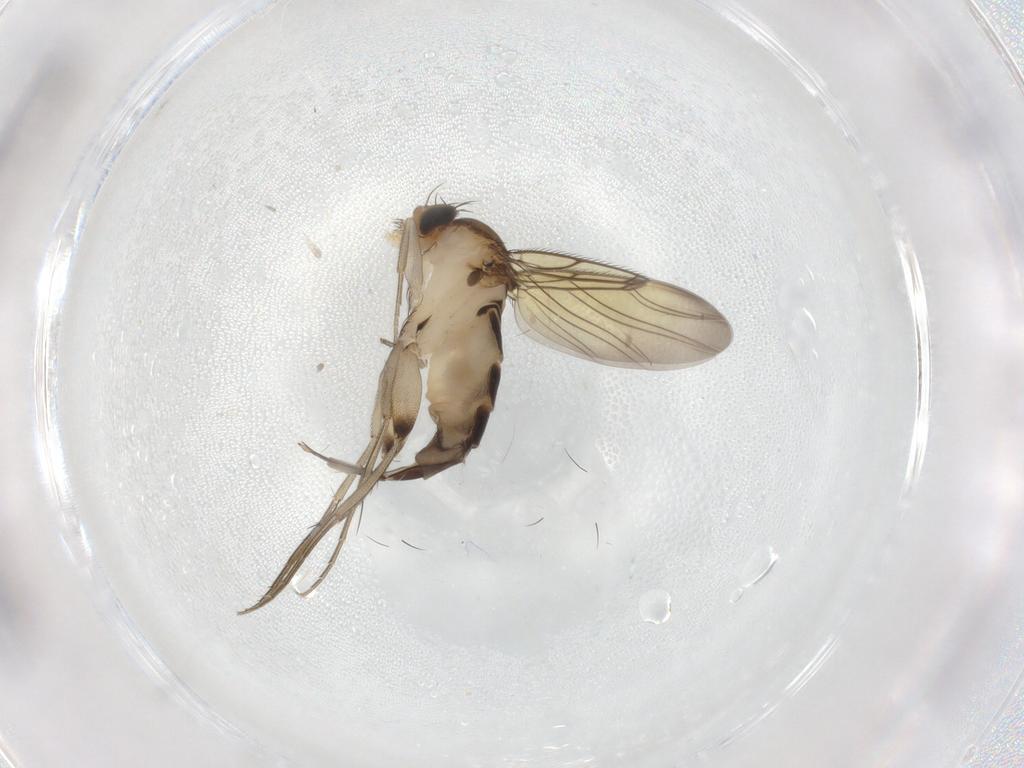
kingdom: Animalia
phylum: Arthropoda
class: Insecta
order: Diptera
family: Phoridae
